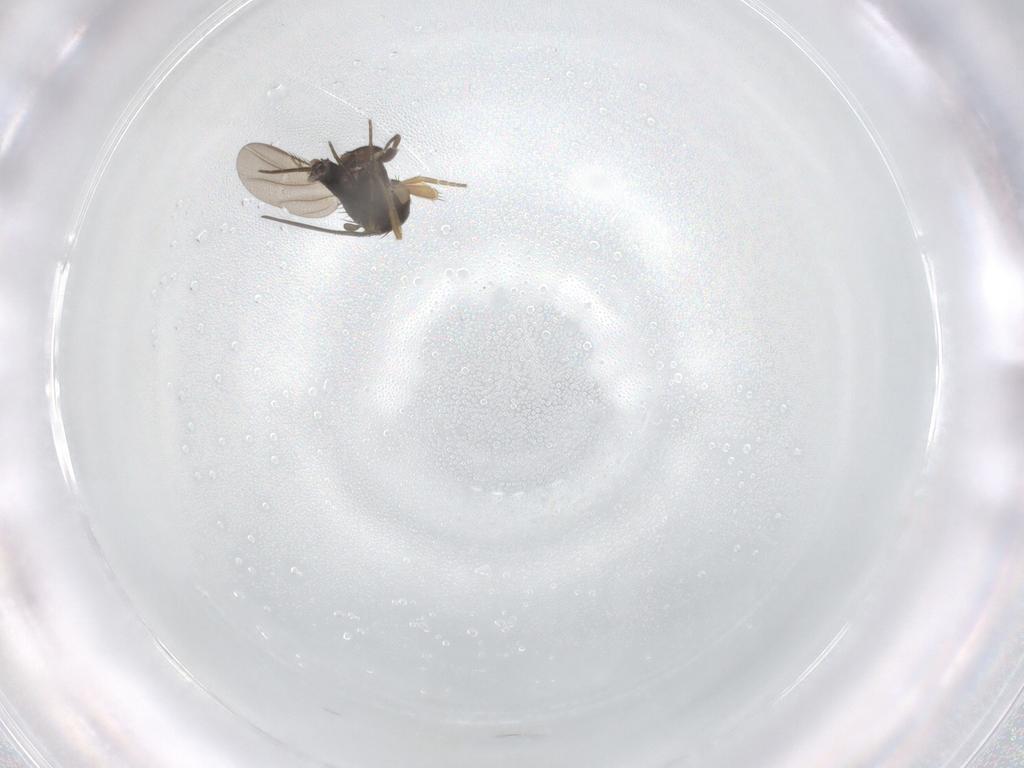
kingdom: Animalia
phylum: Arthropoda
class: Insecta
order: Diptera
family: Phoridae
